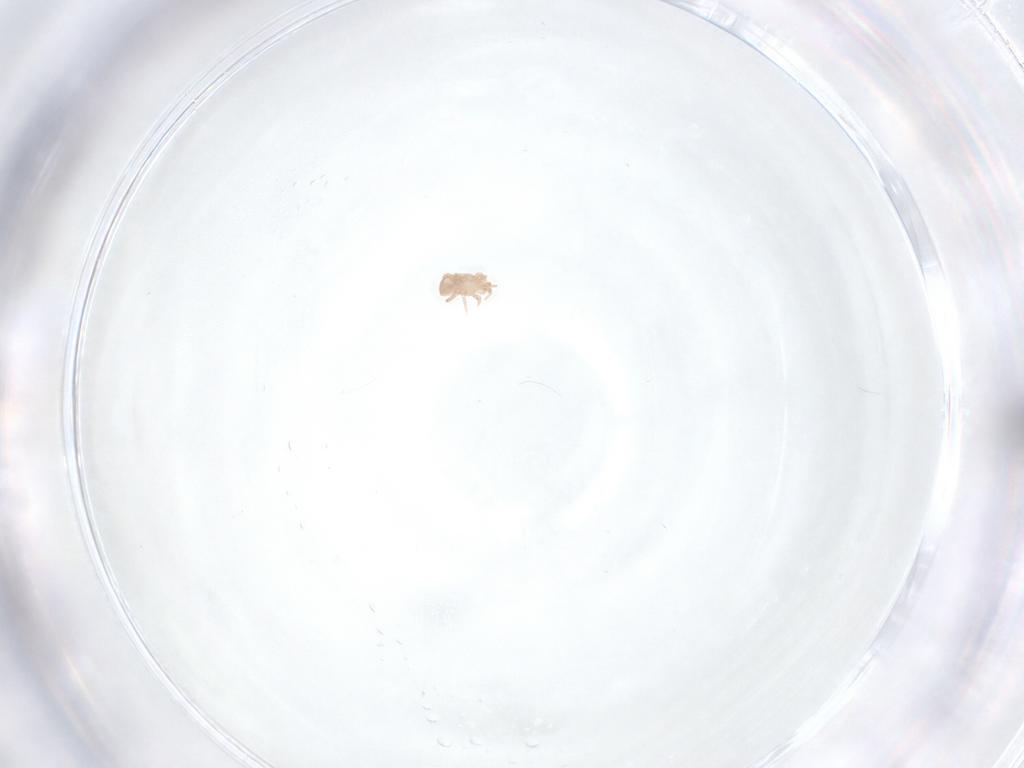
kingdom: Animalia
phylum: Arthropoda
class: Arachnida
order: Mesostigmata
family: Digamasellidae
